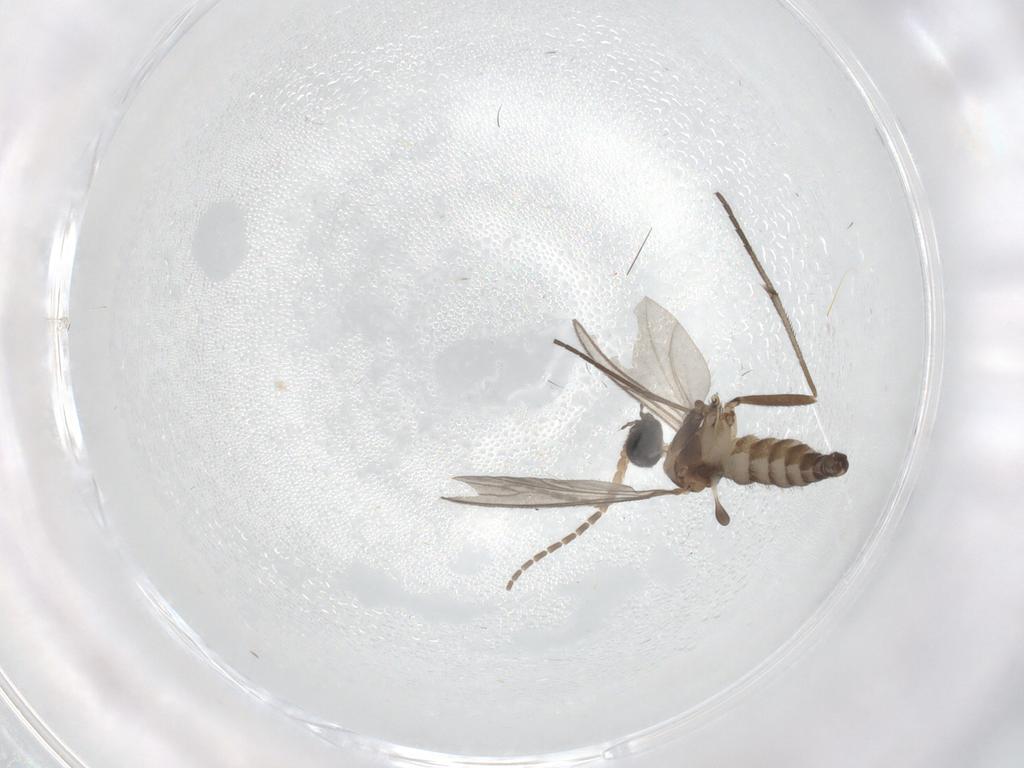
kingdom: Animalia
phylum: Arthropoda
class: Insecta
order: Diptera
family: Sciaridae
